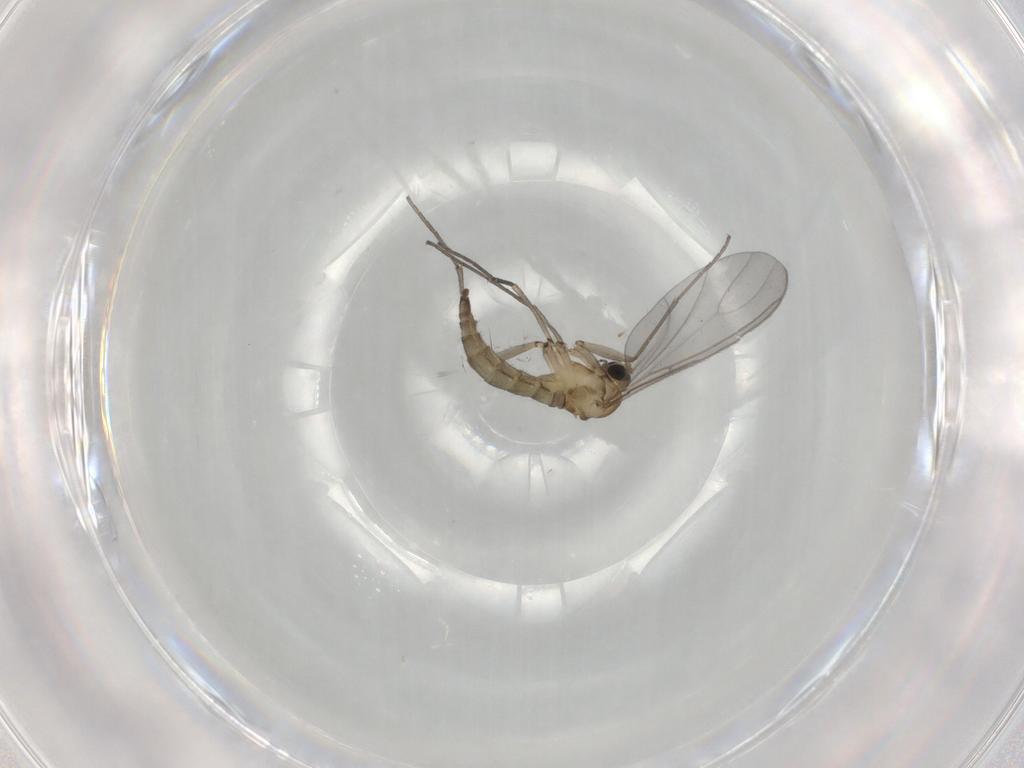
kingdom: Animalia
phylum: Arthropoda
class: Insecta
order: Diptera
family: Sciaridae
